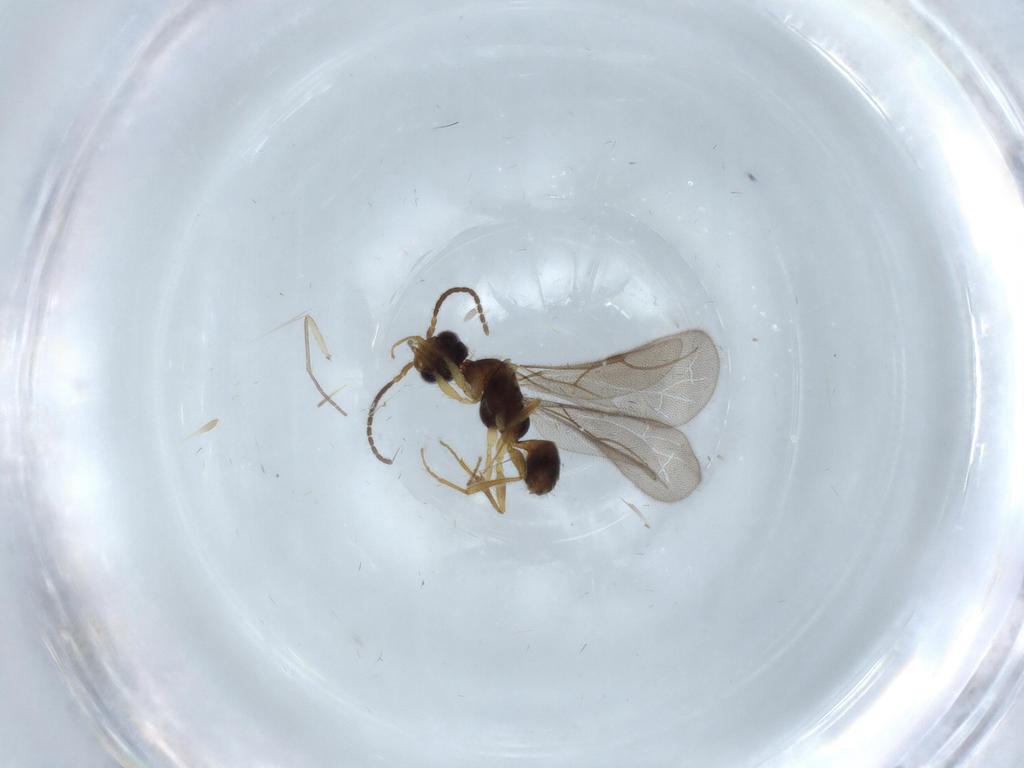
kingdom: Animalia
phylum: Arthropoda
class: Insecta
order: Hymenoptera
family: Bethylidae
